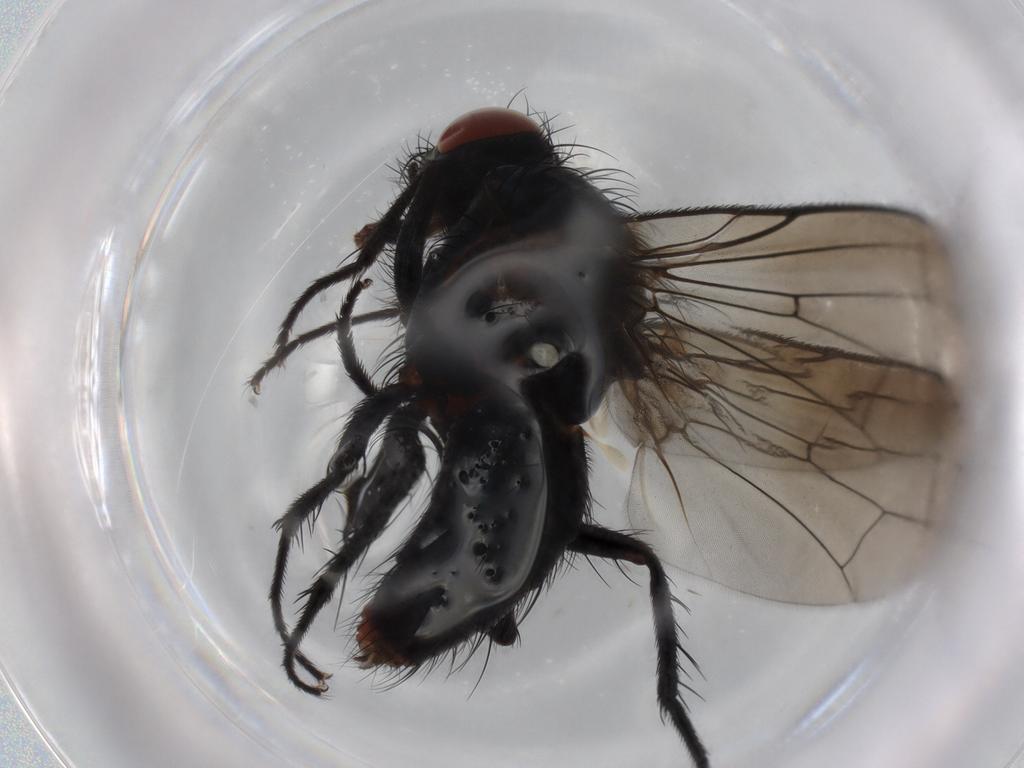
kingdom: Animalia
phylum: Arthropoda
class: Insecta
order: Diptera
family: Anthomyiidae
